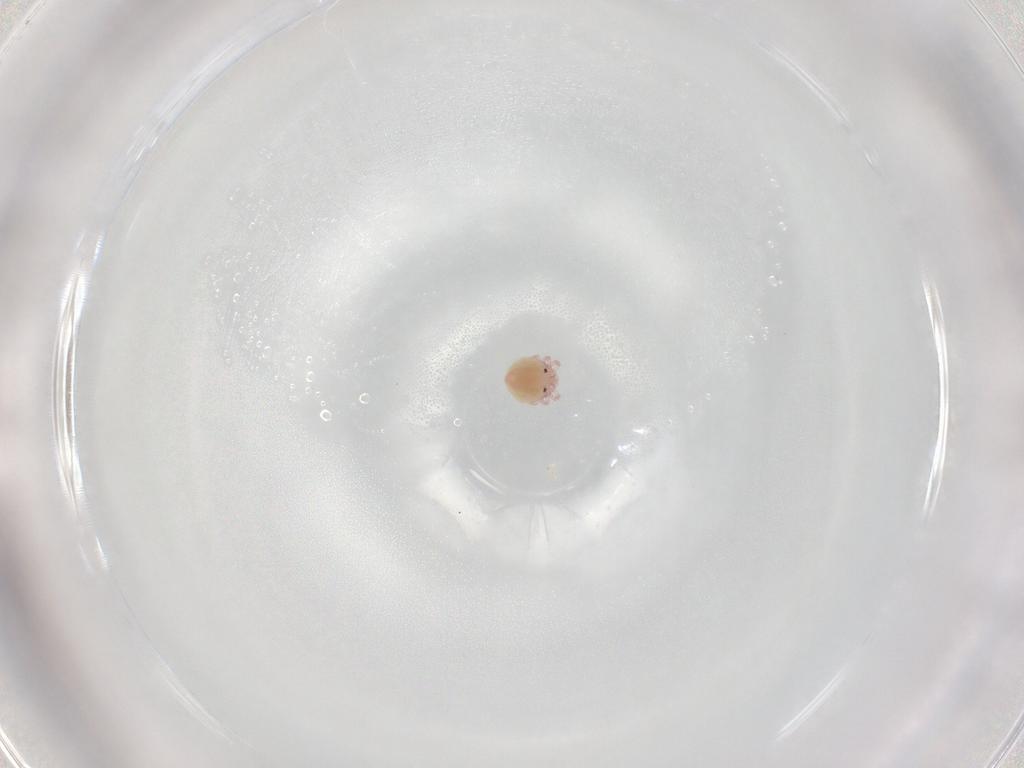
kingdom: Animalia
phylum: Arthropoda
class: Arachnida
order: Trombidiformes
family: Lebertiidae
